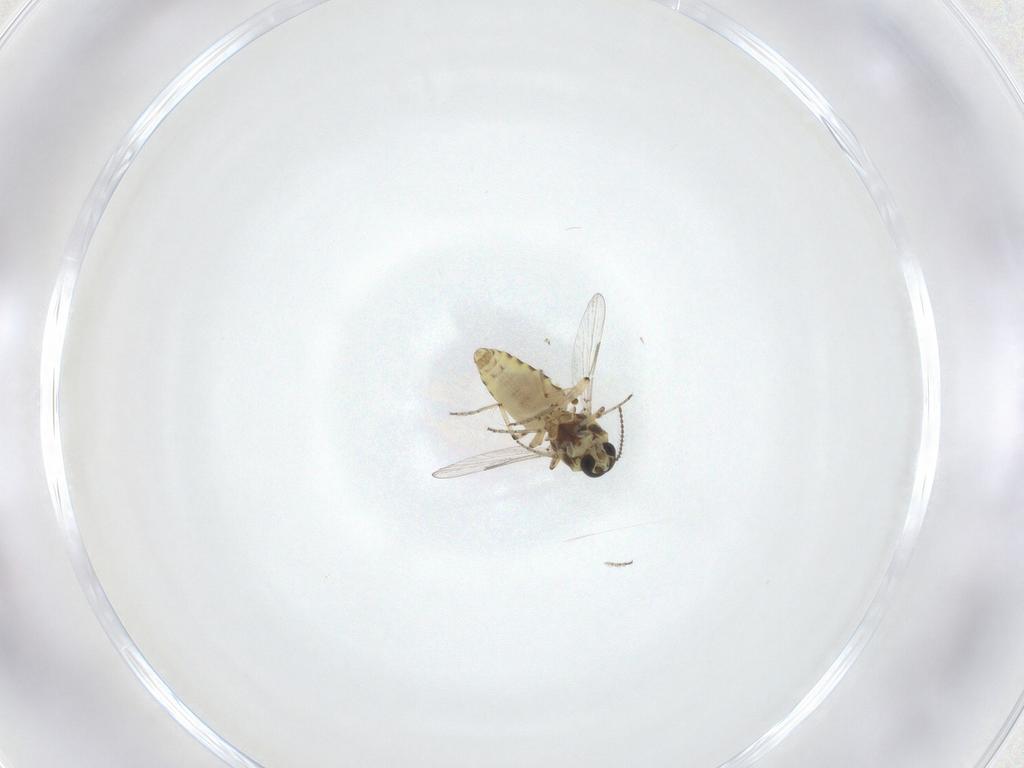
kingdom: Animalia
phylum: Arthropoda
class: Insecta
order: Diptera
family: Ceratopogonidae
